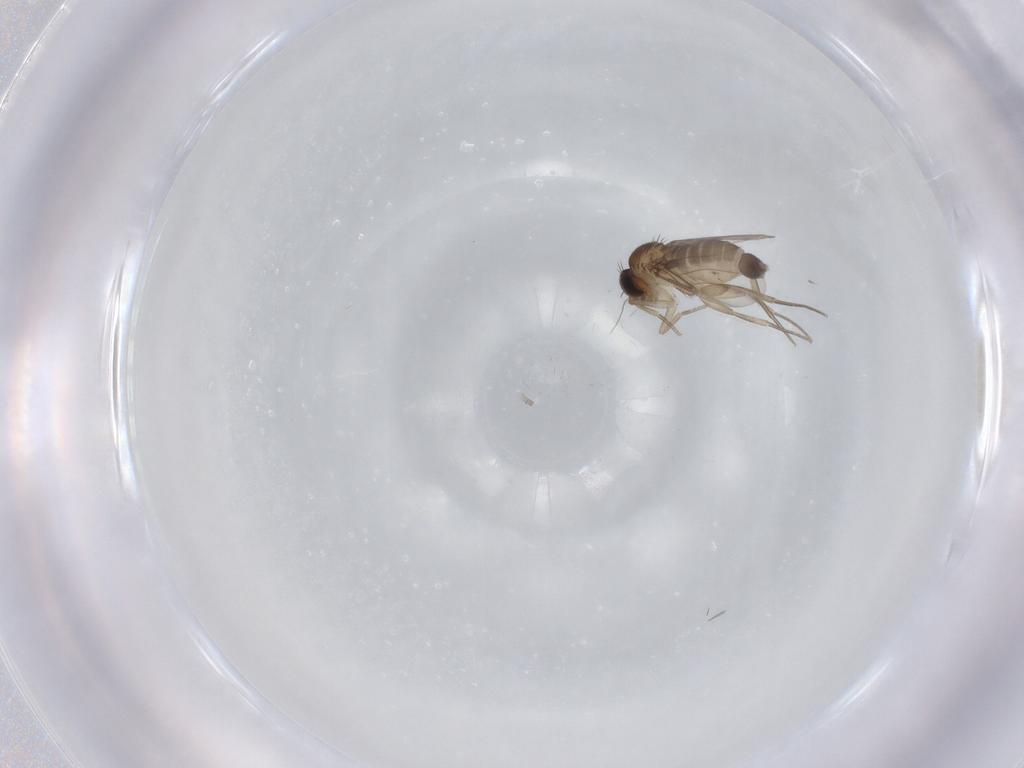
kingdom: Animalia
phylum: Arthropoda
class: Insecta
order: Diptera
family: Phoridae
